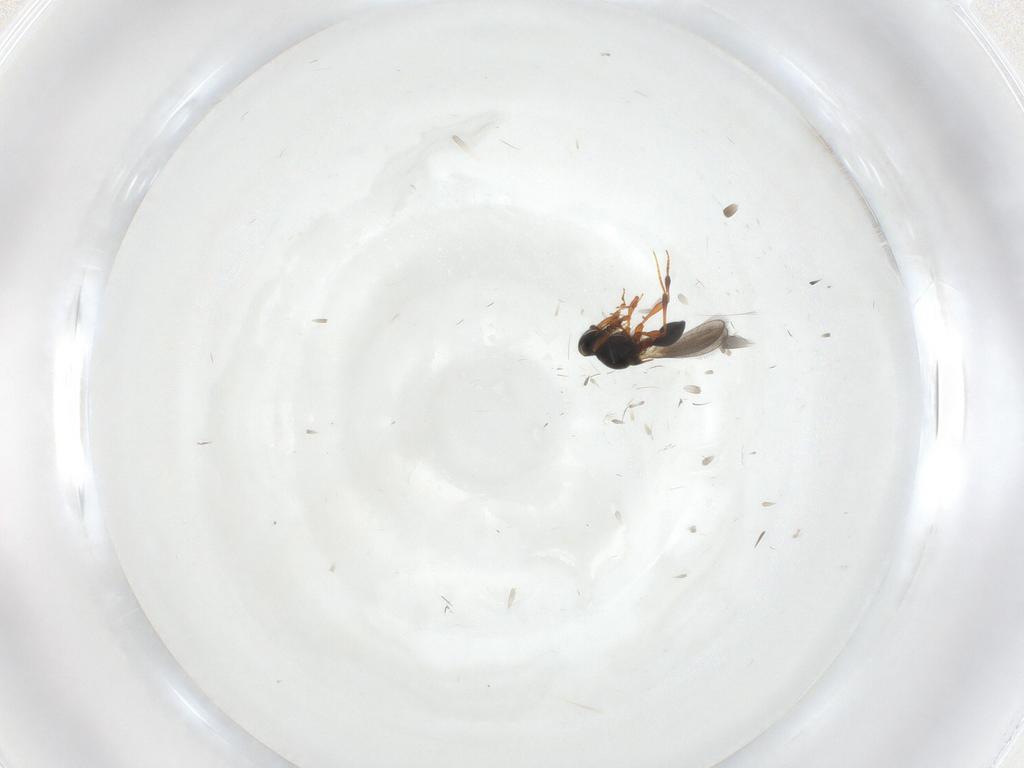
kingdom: Animalia
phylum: Arthropoda
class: Insecta
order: Hymenoptera
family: Platygastridae
